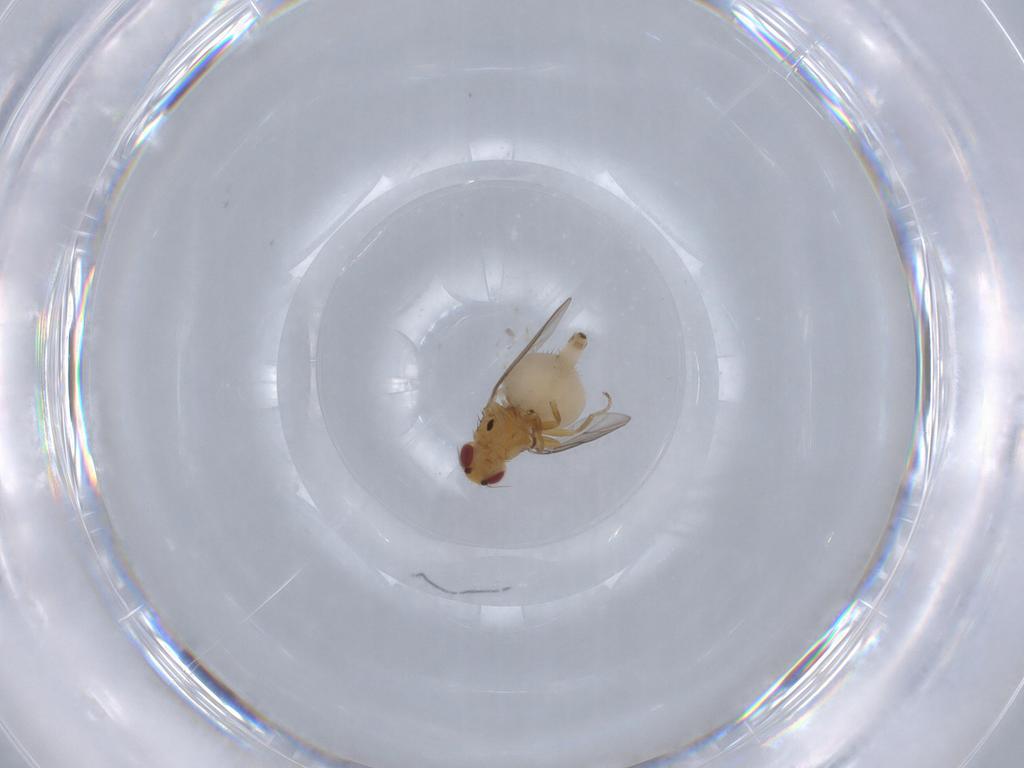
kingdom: Animalia
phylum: Arthropoda
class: Insecta
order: Diptera
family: Chloropidae
